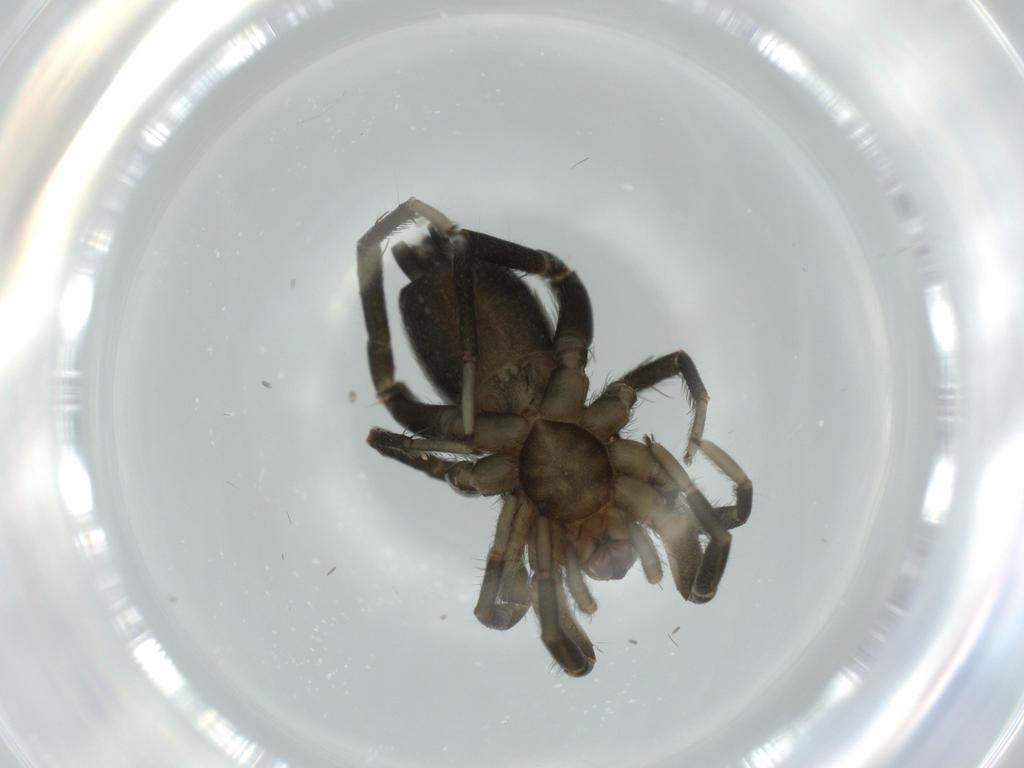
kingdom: Animalia
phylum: Arthropoda
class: Arachnida
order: Araneae
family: Gnaphosidae
